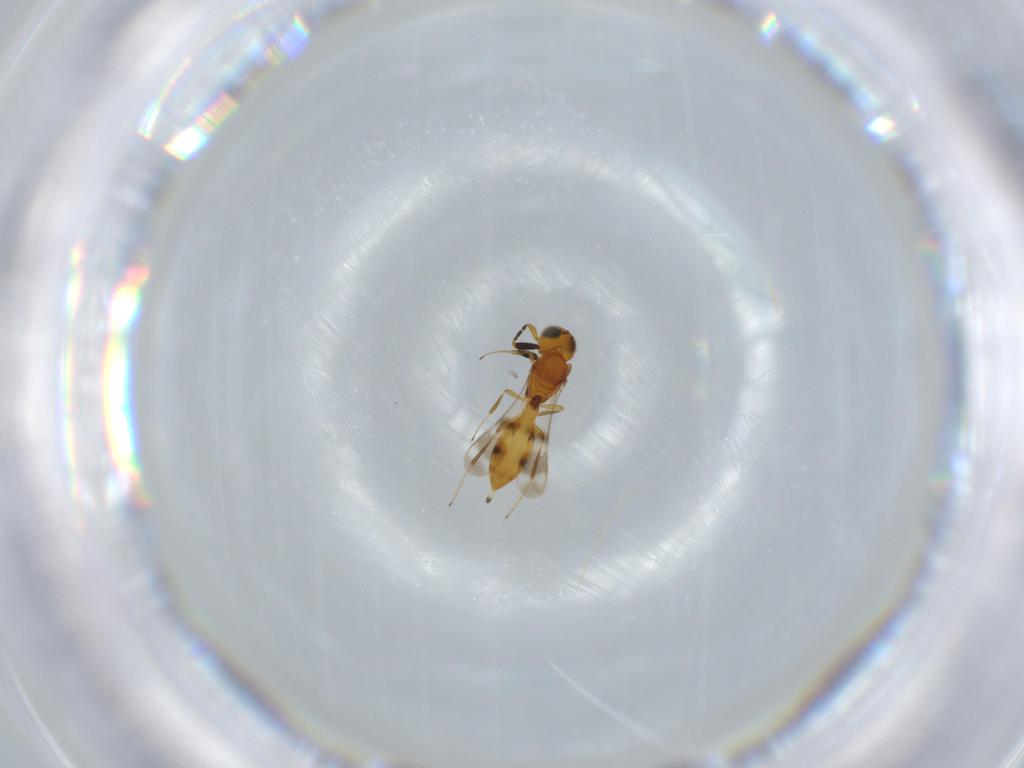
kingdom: Animalia
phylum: Arthropoda
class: Insecta
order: Hymenoptera
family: Scelionidae
